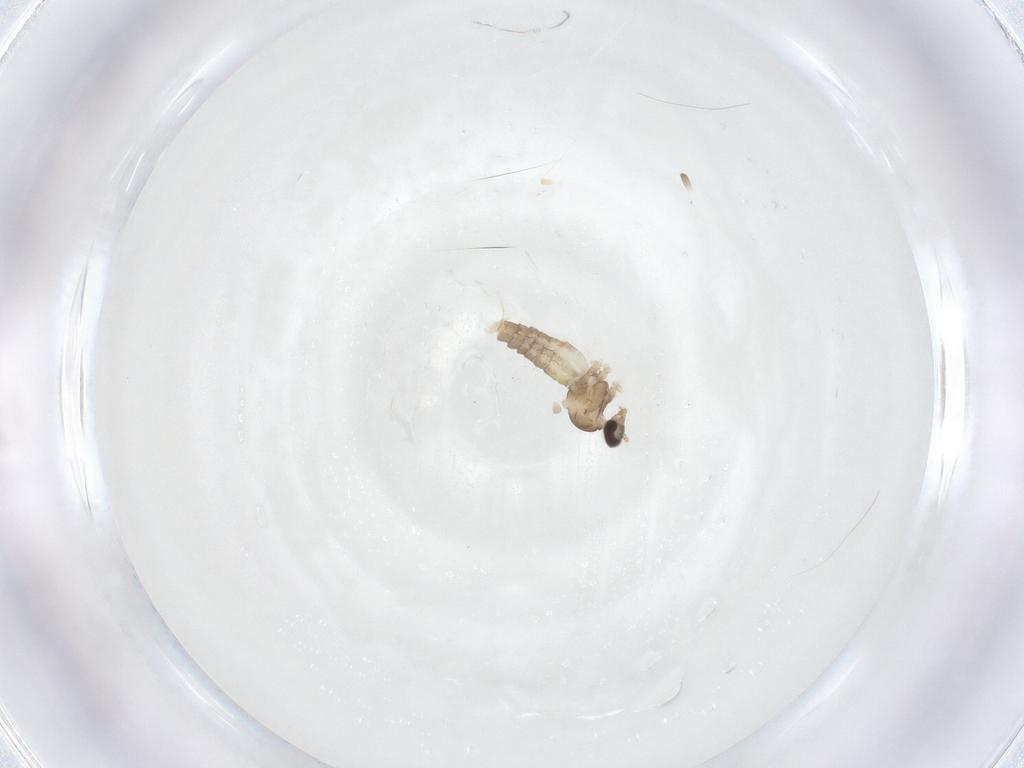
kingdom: Animalia
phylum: Arthropoda
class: Insecta
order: Diptera
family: Cecidomyiidae
